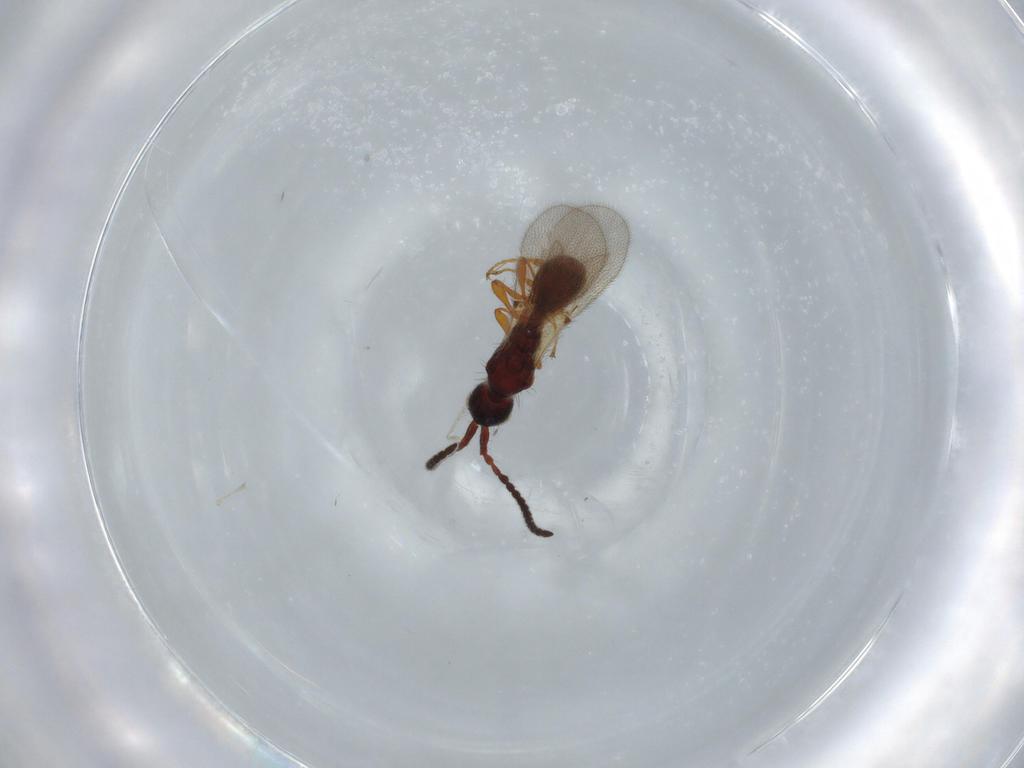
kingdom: Animalia
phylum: Arthropoda
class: Insecta
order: Hymenoptera
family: Diapriidae
